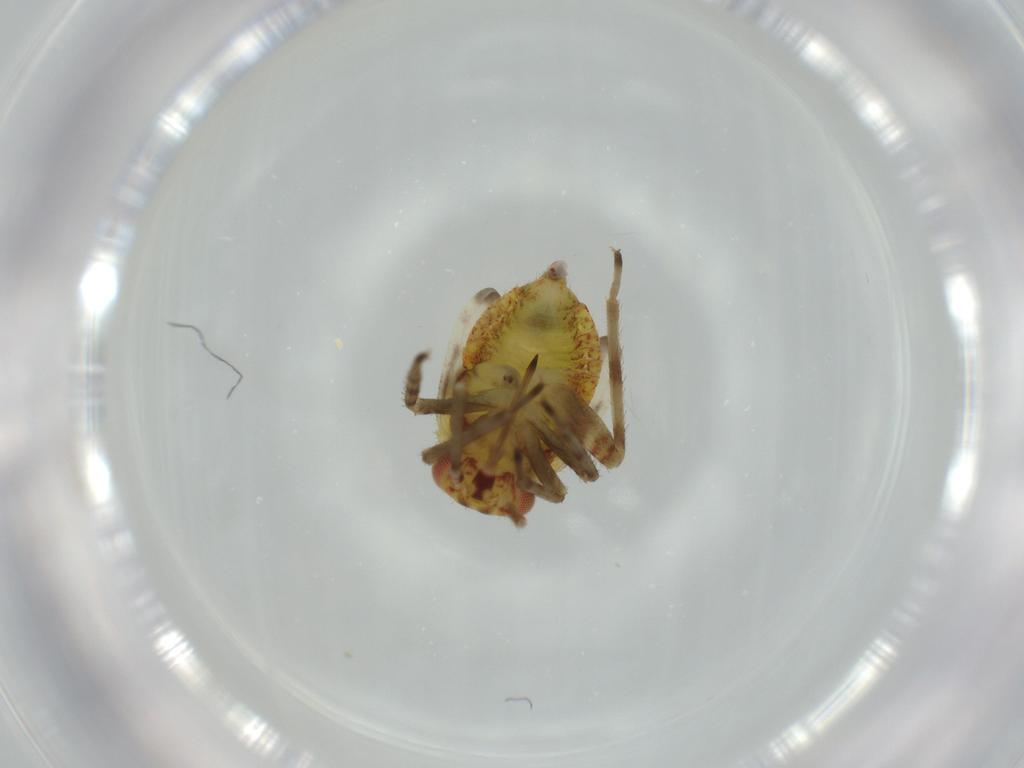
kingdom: Animalia
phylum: Arthropoda
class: Insecta
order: Hemiptera
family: Miridae
